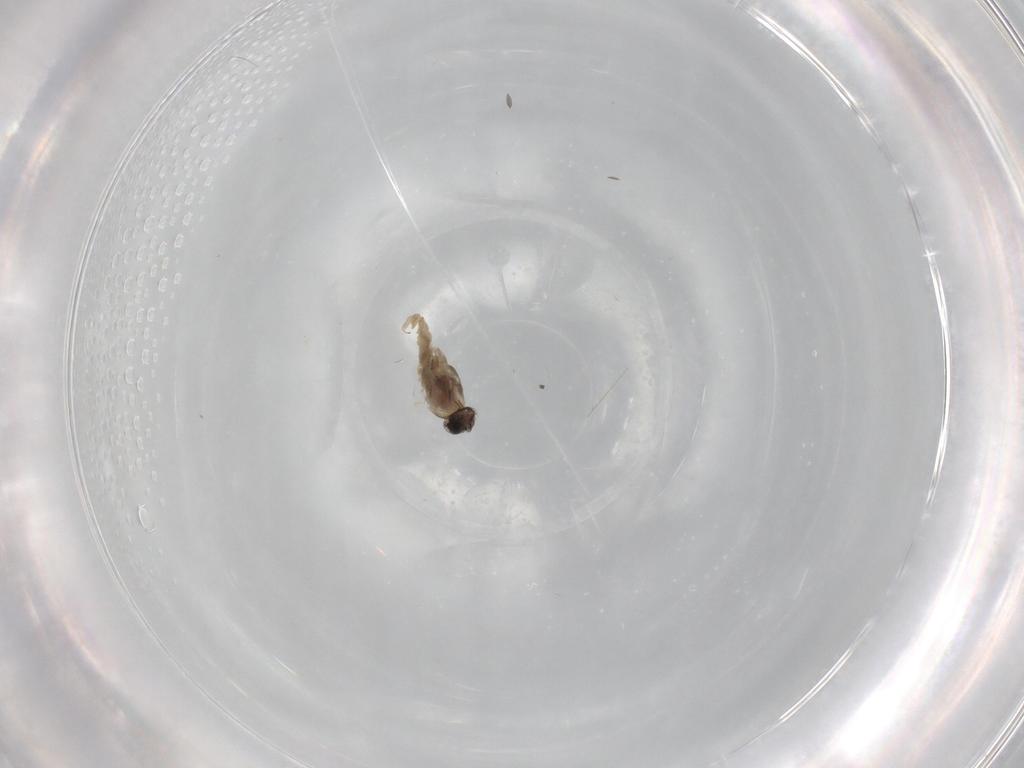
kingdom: Animalia
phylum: Arthropoda
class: Insecta
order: Diptera
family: Cecidomyiidae
